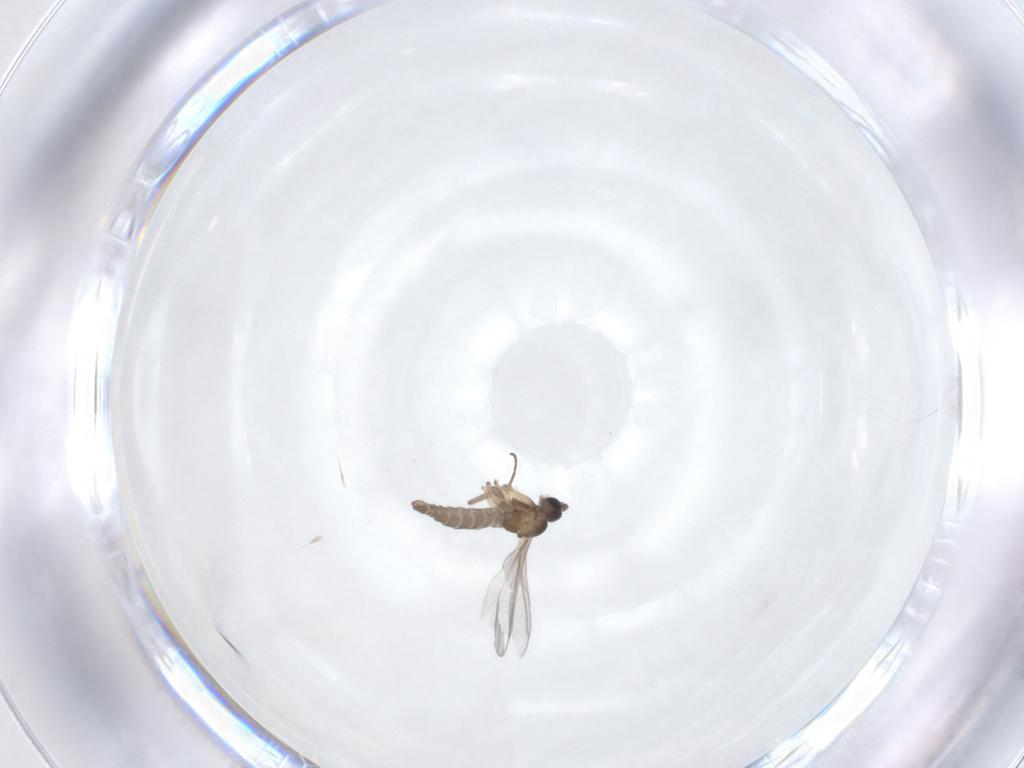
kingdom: Animalia
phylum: Arthropoda
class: Insecta
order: Diptera
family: Sciaridae
